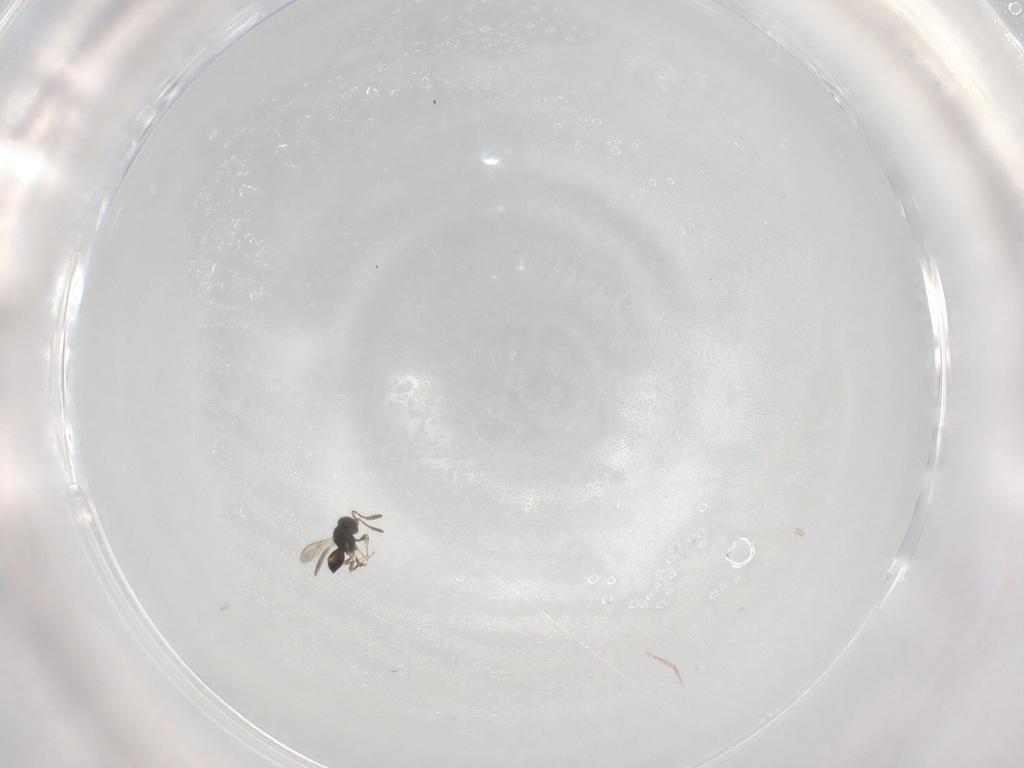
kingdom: Animalia
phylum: Arthropoda
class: Insecta
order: Hymenoptera
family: Scelionidae
